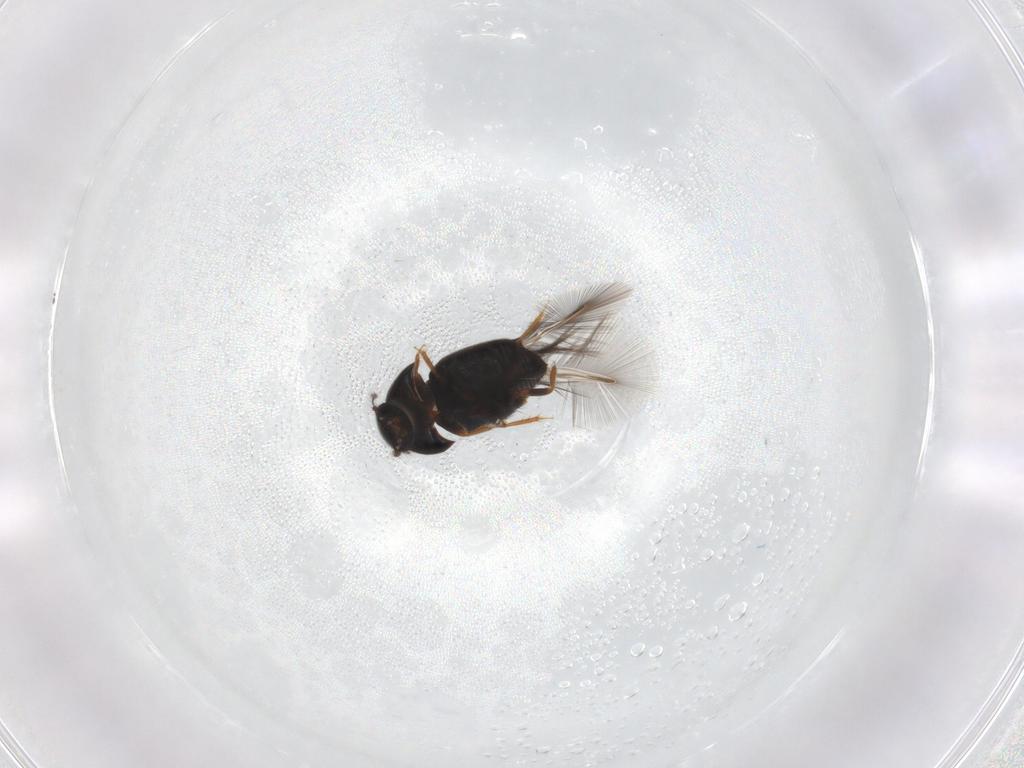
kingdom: Animalia
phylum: Arthropoda
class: Insecta
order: Coleoptera
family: Ptiliidae
